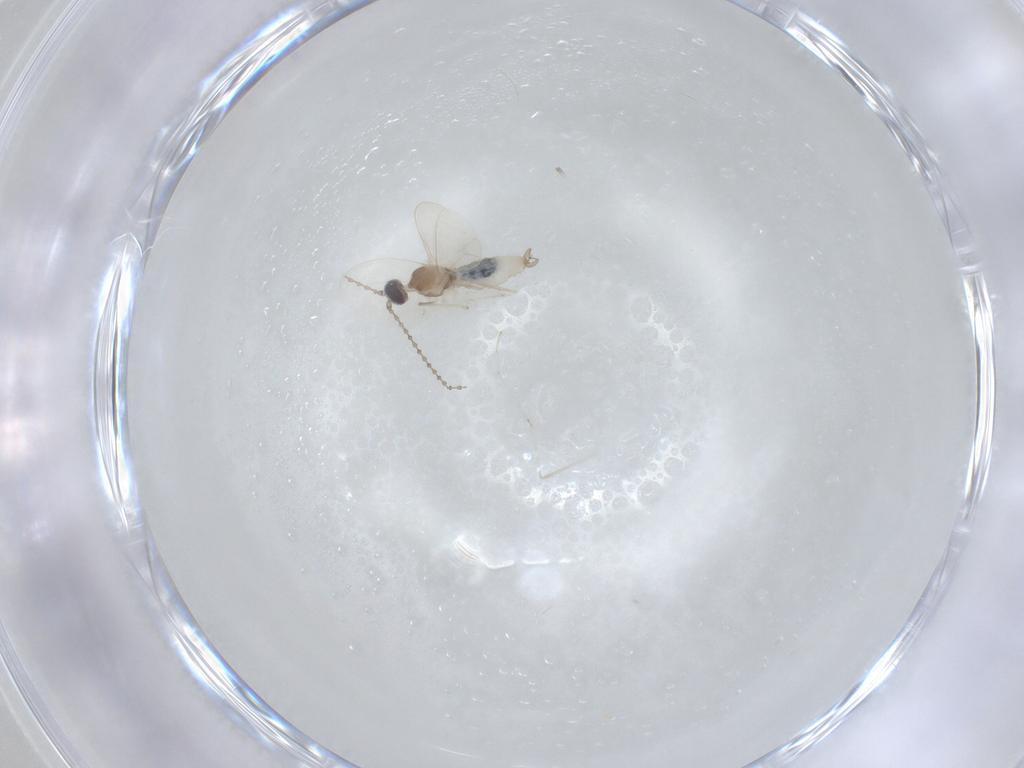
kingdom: Animalia
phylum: Arthropoda
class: Insecta
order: Diptera
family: Cecidomyiidae
